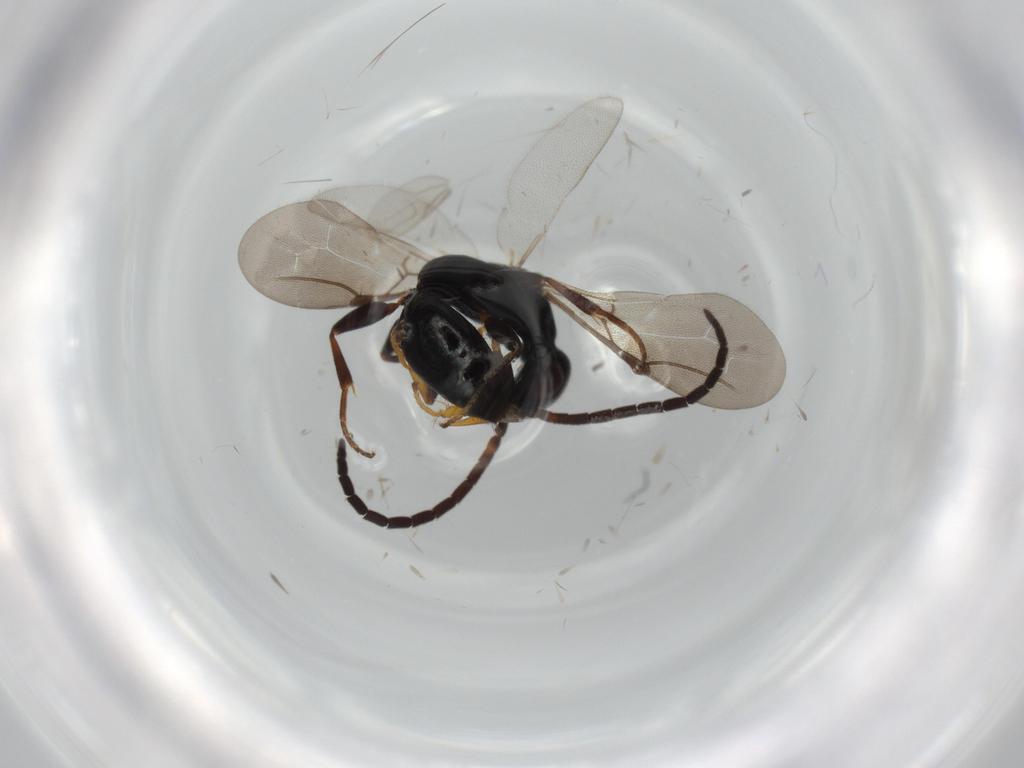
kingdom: Animalia
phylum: Arthropoda
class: Insecta
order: Hymenoptera
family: Bethylidae
